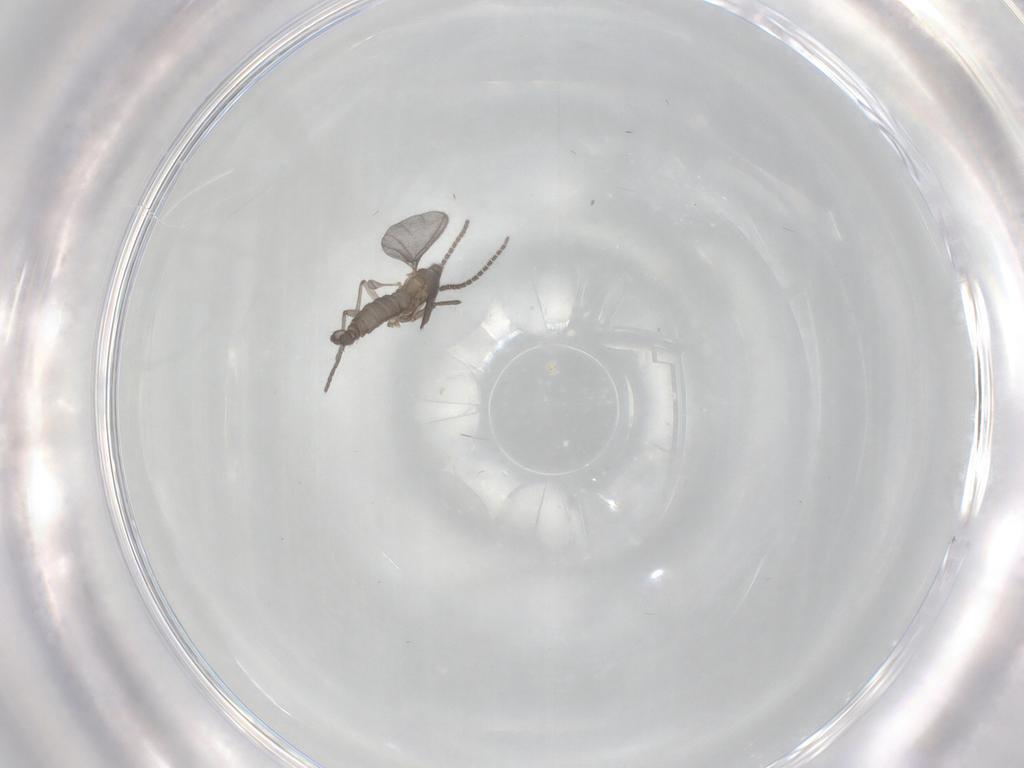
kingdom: Animalia
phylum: Arthropoda
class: Insecta
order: Diptera
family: Sciaridae
